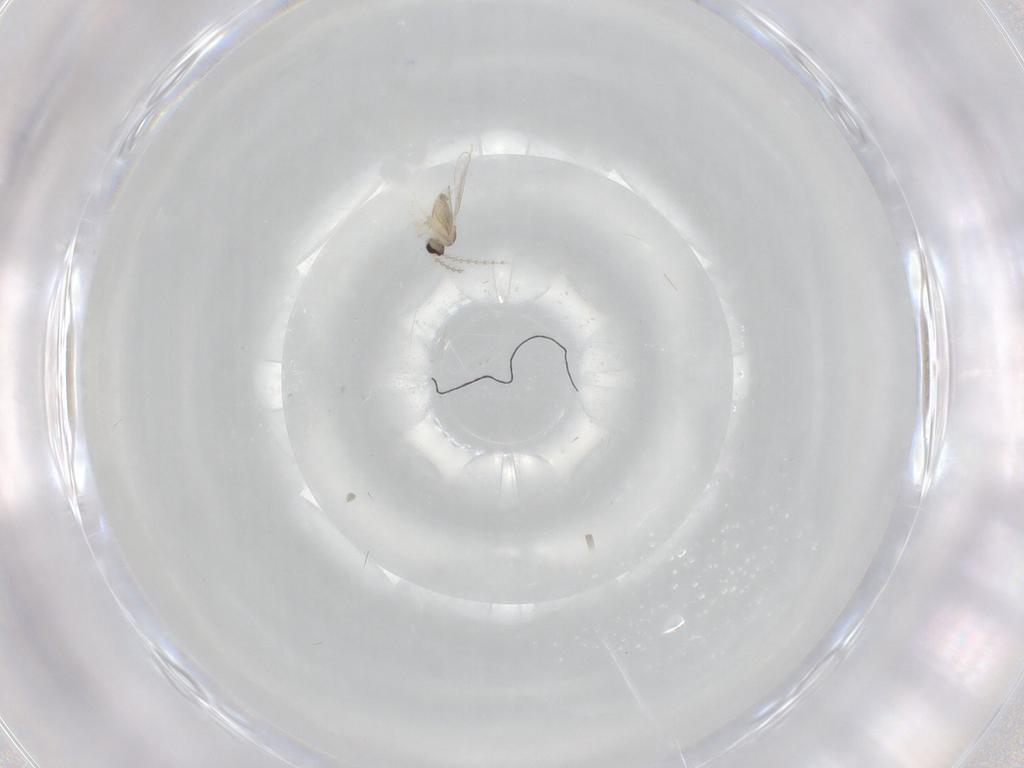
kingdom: Animalia
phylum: Arthropoda
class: Insecta
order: Diptera
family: Cecidomyiidae
